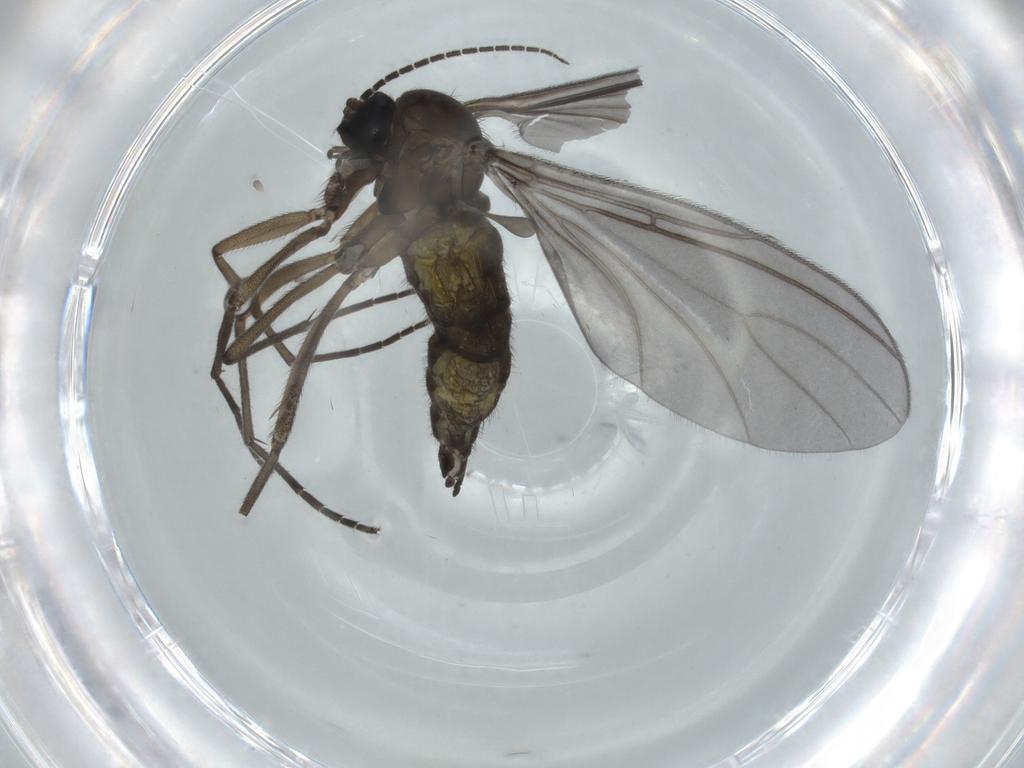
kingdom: Animalia
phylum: Arthropoda
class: Insecta
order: Diptera
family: Sciaridae
